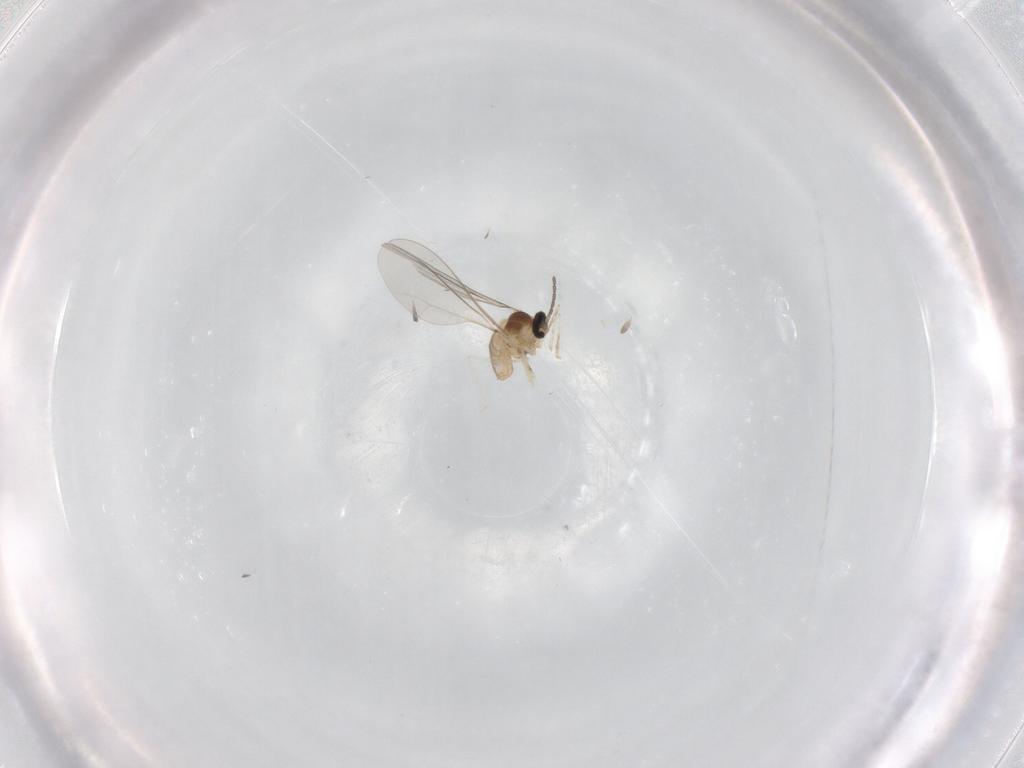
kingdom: Animalia
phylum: Arthropoda
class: Insecta
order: Diptera
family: Cecidomyiidae
